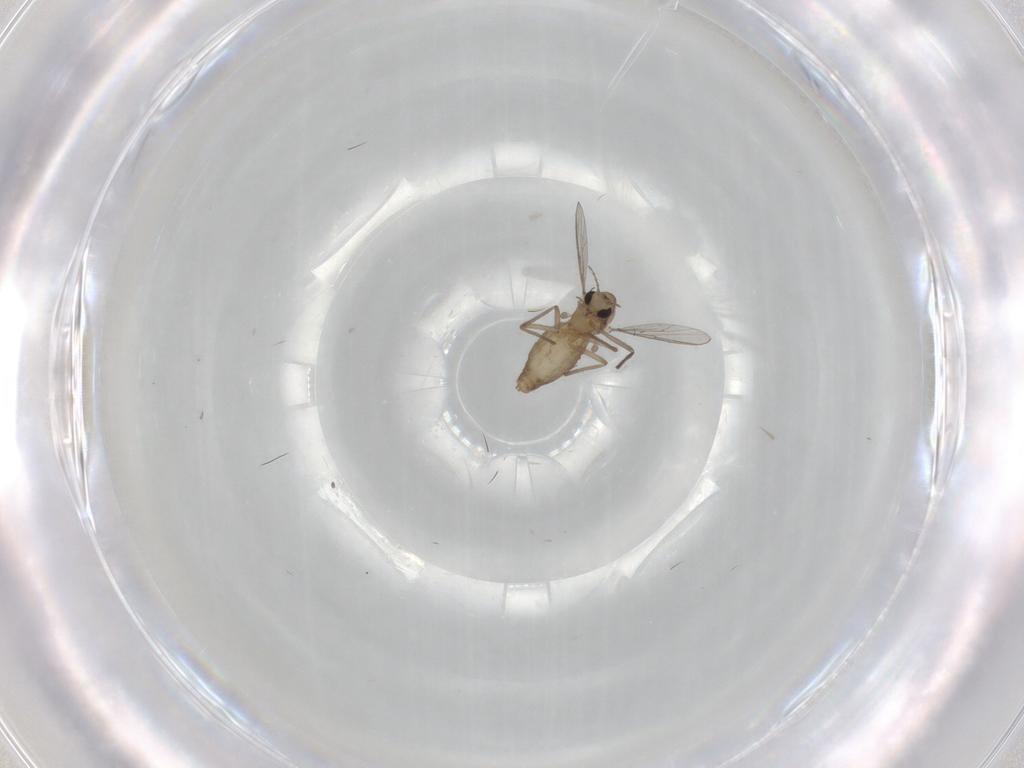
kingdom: Animalia
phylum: Arthropoda
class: Insecta
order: Diptera
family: Chironomidae
